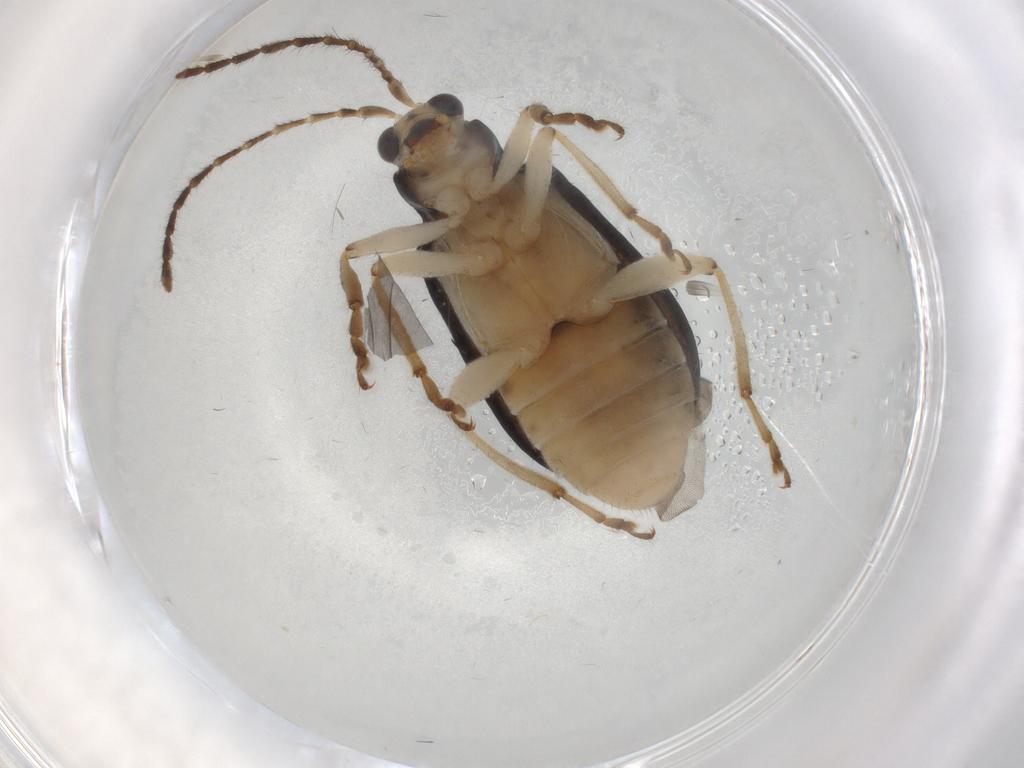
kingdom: Animalia
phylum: Arthropoda
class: Insecta
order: Coleoptera
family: Chrysomelidae
